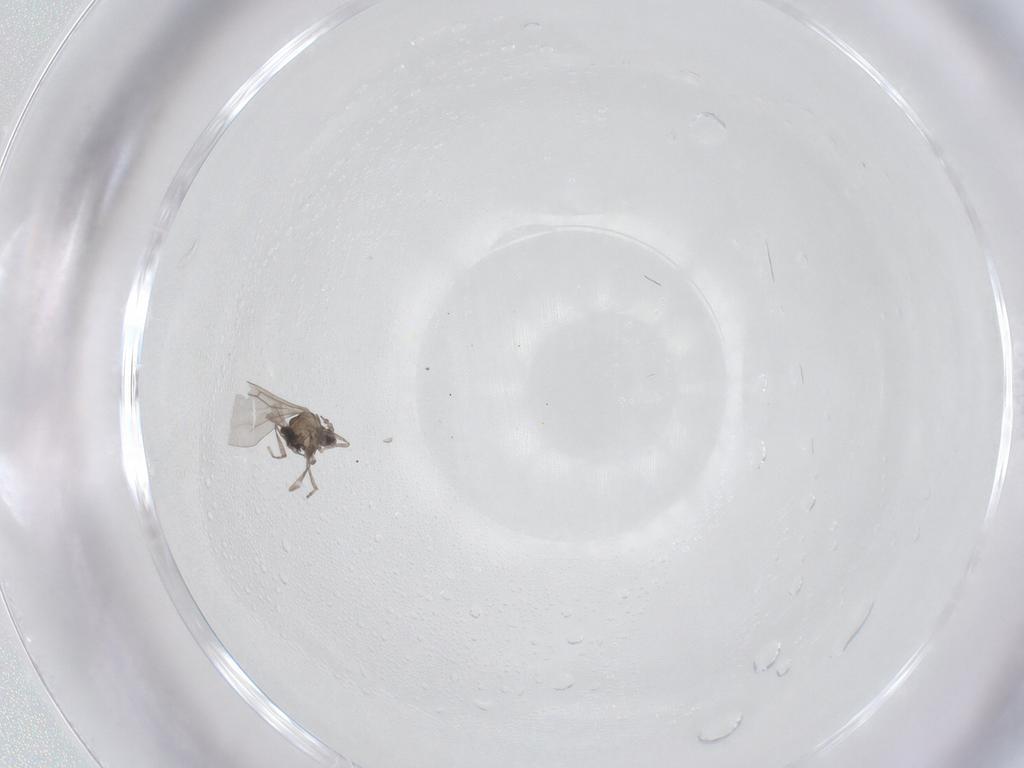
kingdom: Animalia
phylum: Arthropoda
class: Insecta
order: Diptera
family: Cecidomyiidae
